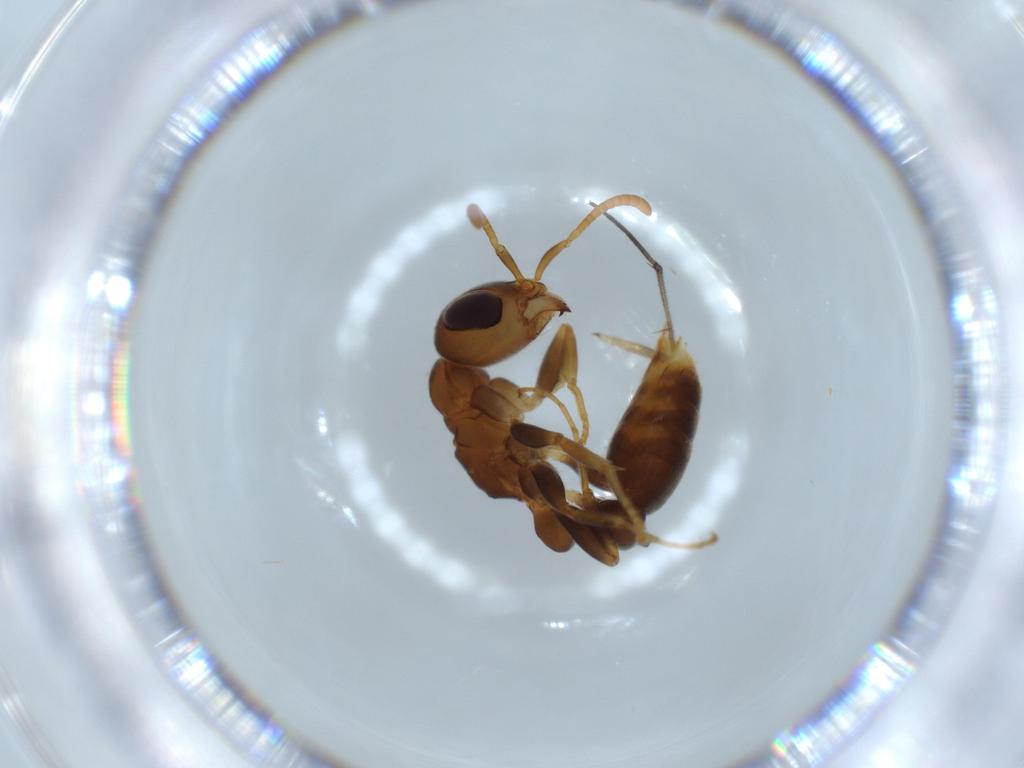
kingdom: Animalia
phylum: Arthropoda
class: Insecta
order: Hymenoptera
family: Formicidae
